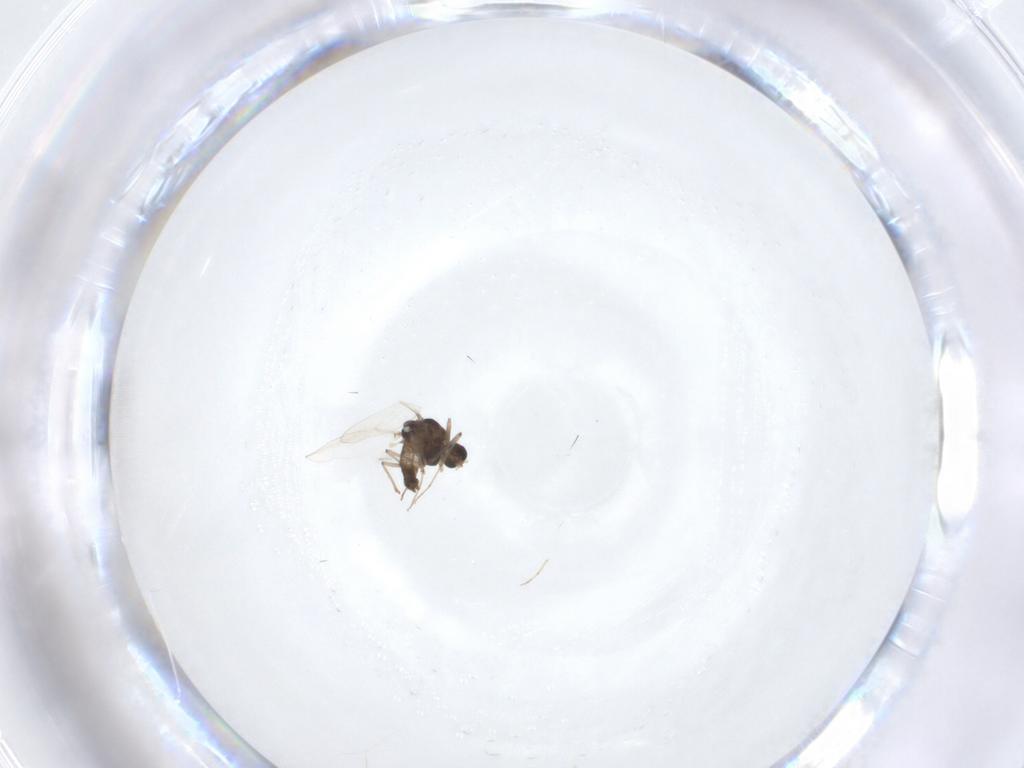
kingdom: Animalia
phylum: Arthropoda
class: Insecta
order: Diptera
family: Chironomidae
